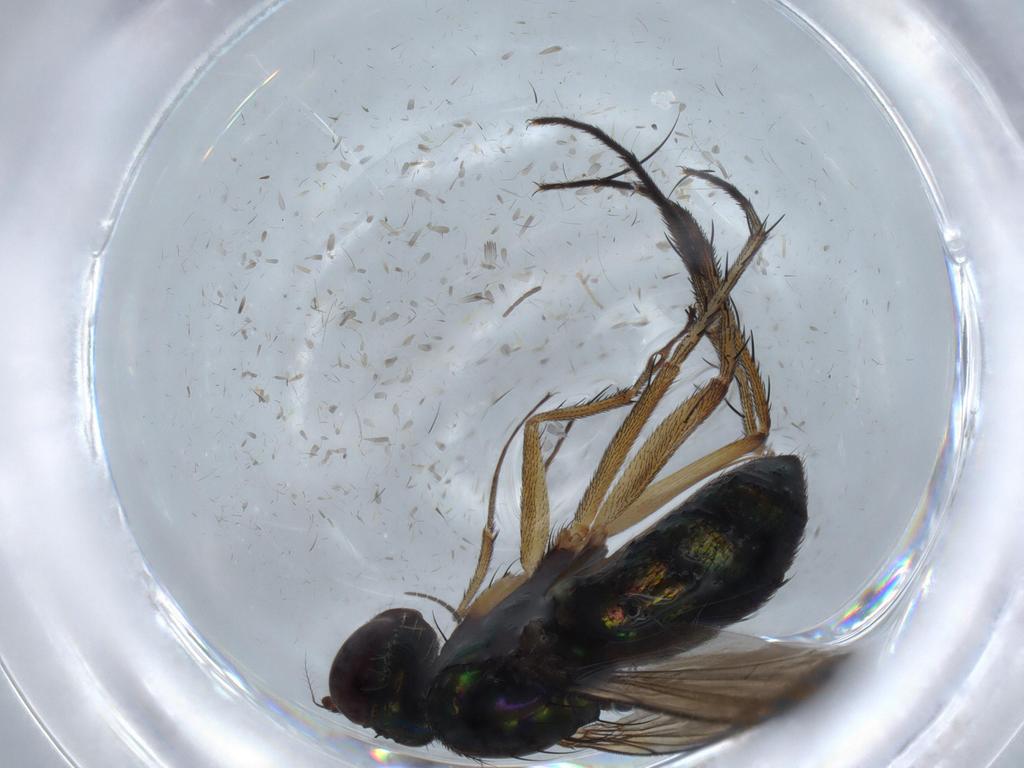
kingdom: Animalia
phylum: Arthropoda
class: Insecta
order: Diptera
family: Dolichopodidae
